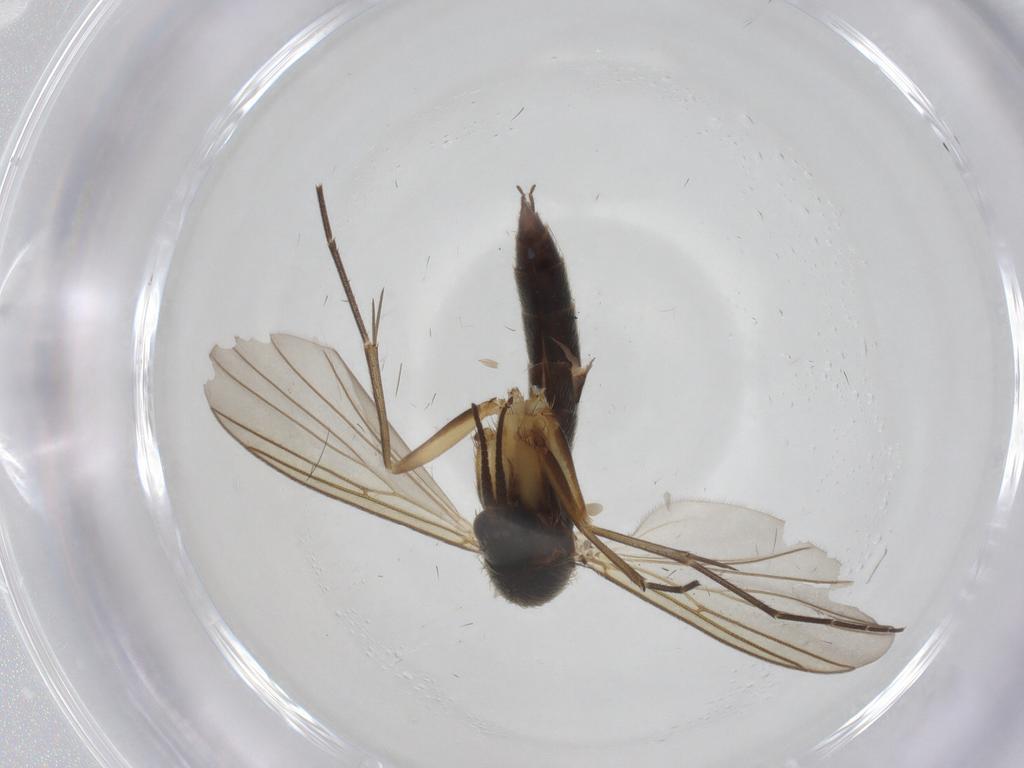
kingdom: Animalia
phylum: Arthropoda
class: Insecta
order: Diptera
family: Mycetophilidae
